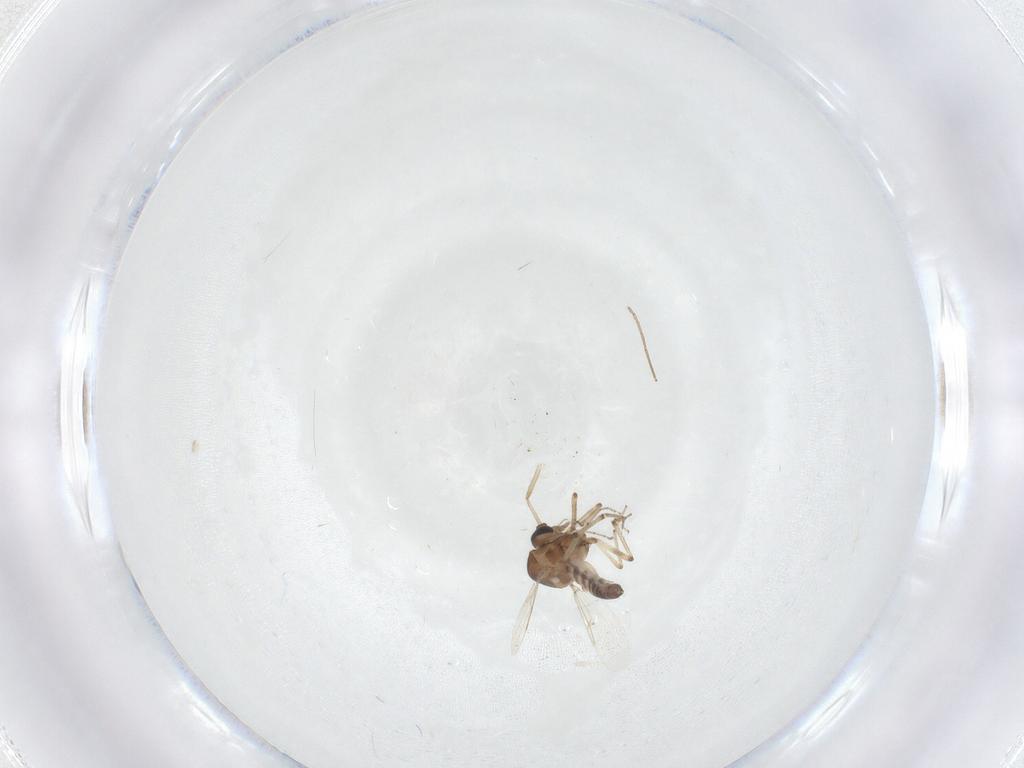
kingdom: Animalia
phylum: Arthropoda
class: Insecta
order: Diptera
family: Ceratopogonidae
